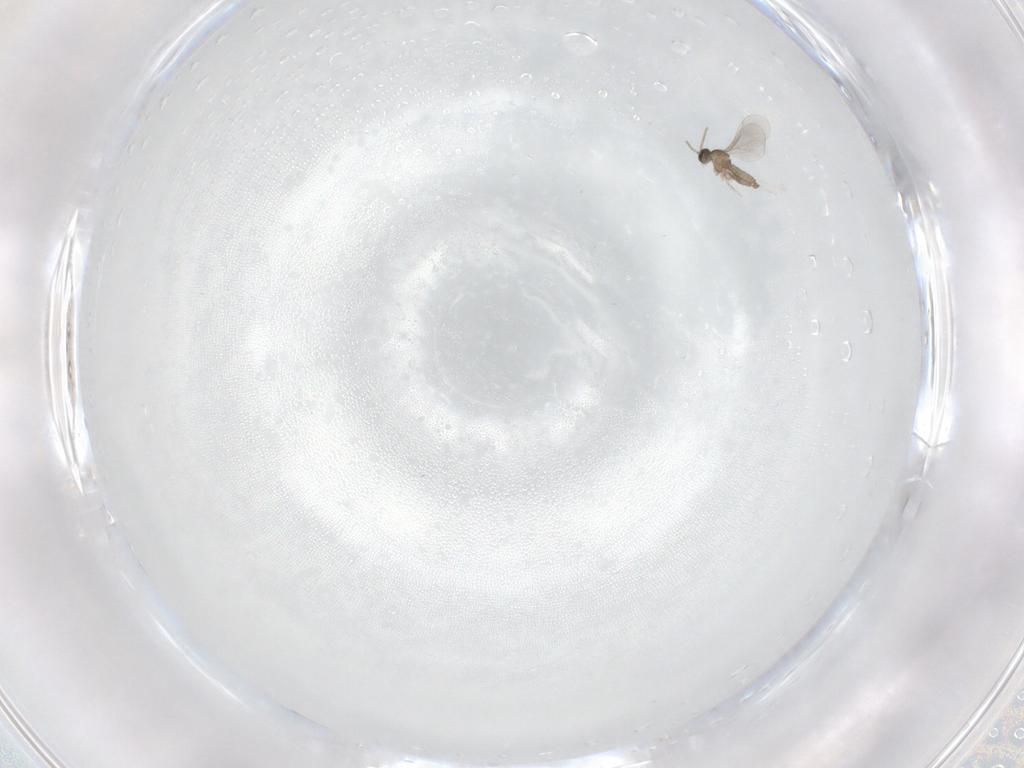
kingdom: Animalia
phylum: Arthropoda
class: Insecta
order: Diptera
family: Cecidomyiidae
